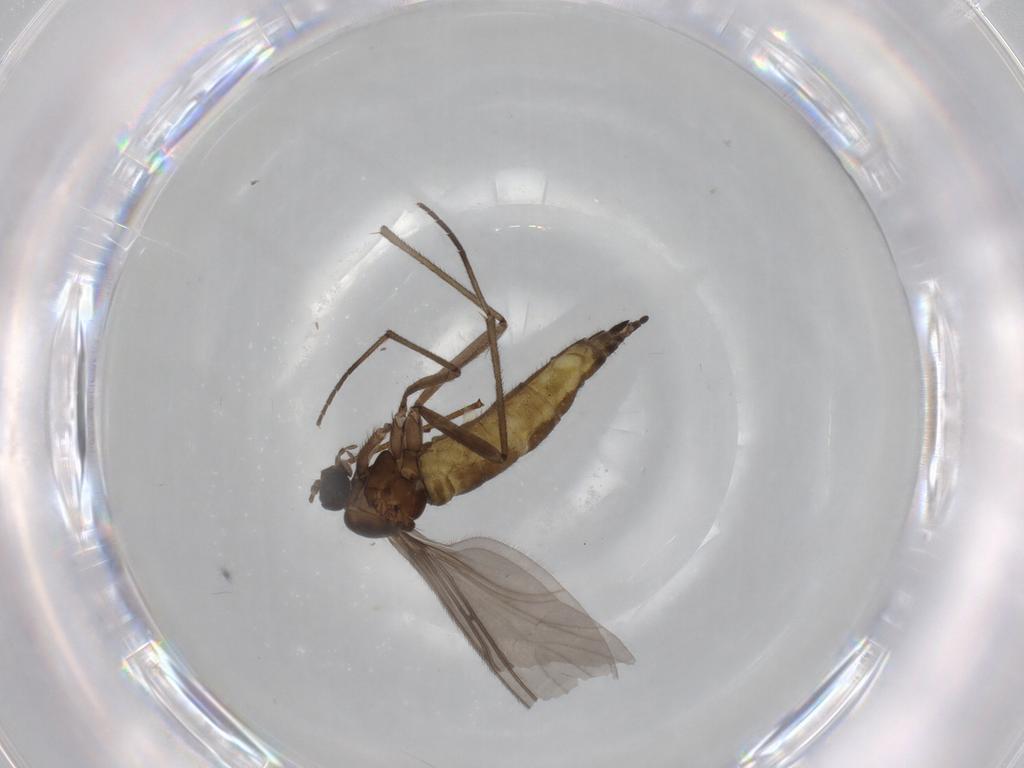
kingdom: Animalia
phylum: Arthropoda
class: Insecta
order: Diptera
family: Sciaridae
